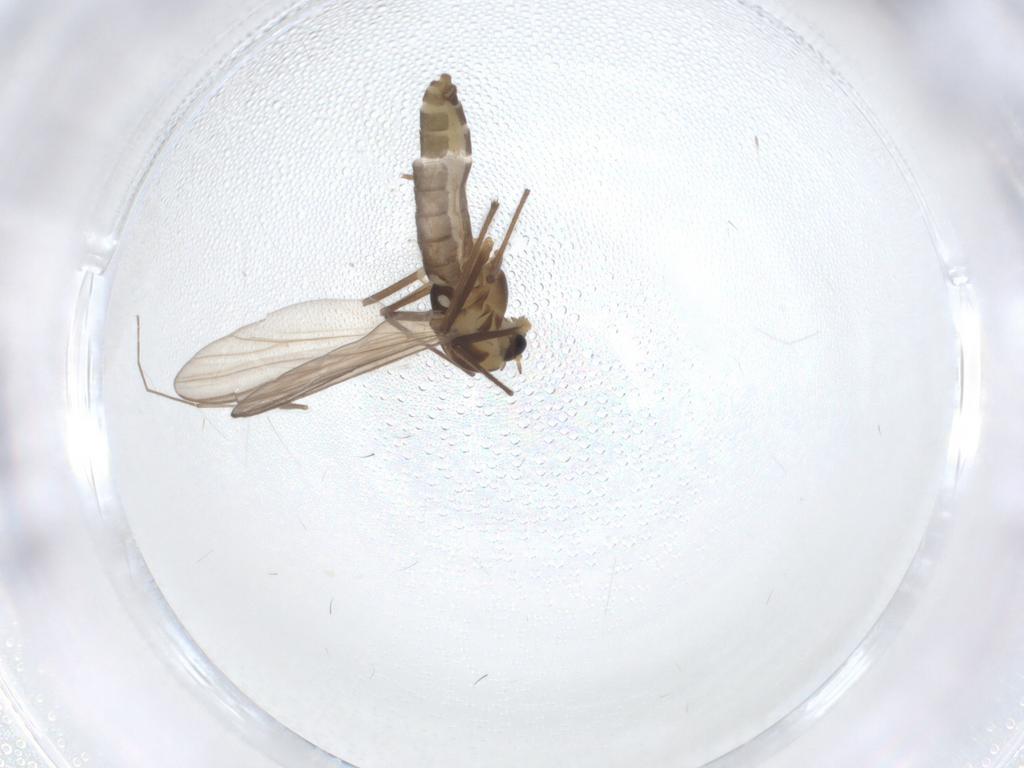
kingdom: Animalia
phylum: Arthropoda
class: Insecta
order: Diptera
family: Chironomidae
